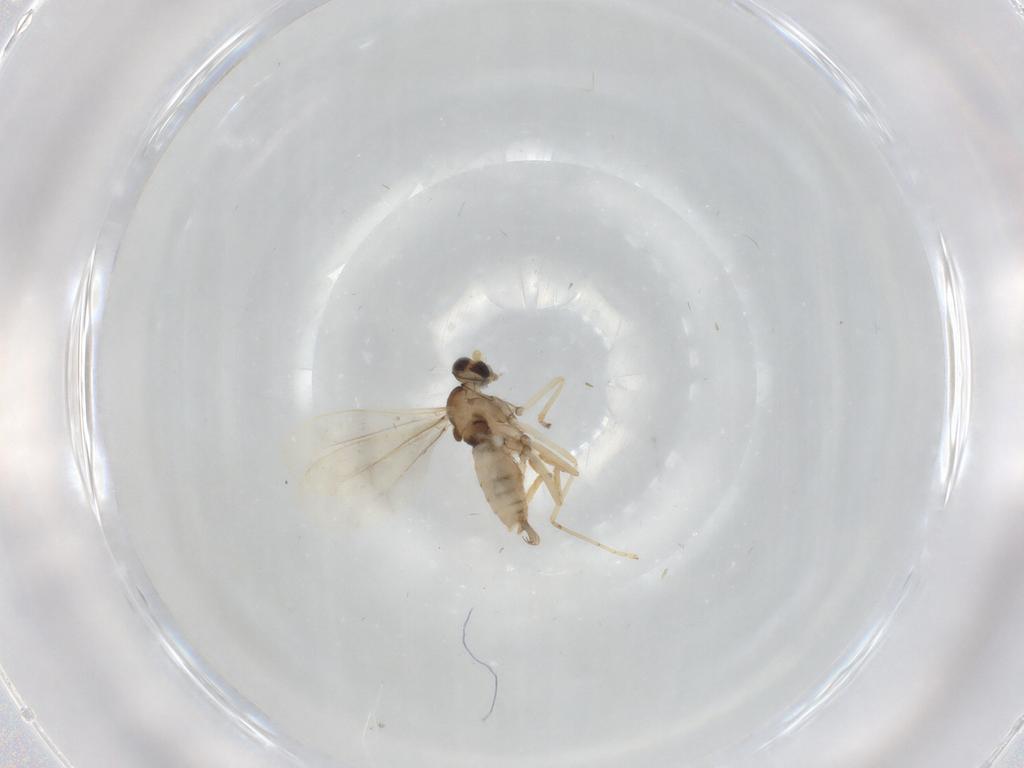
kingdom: Animalia
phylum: Arthropoda
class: Insecta
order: Diptera
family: Cecidomyiidae
